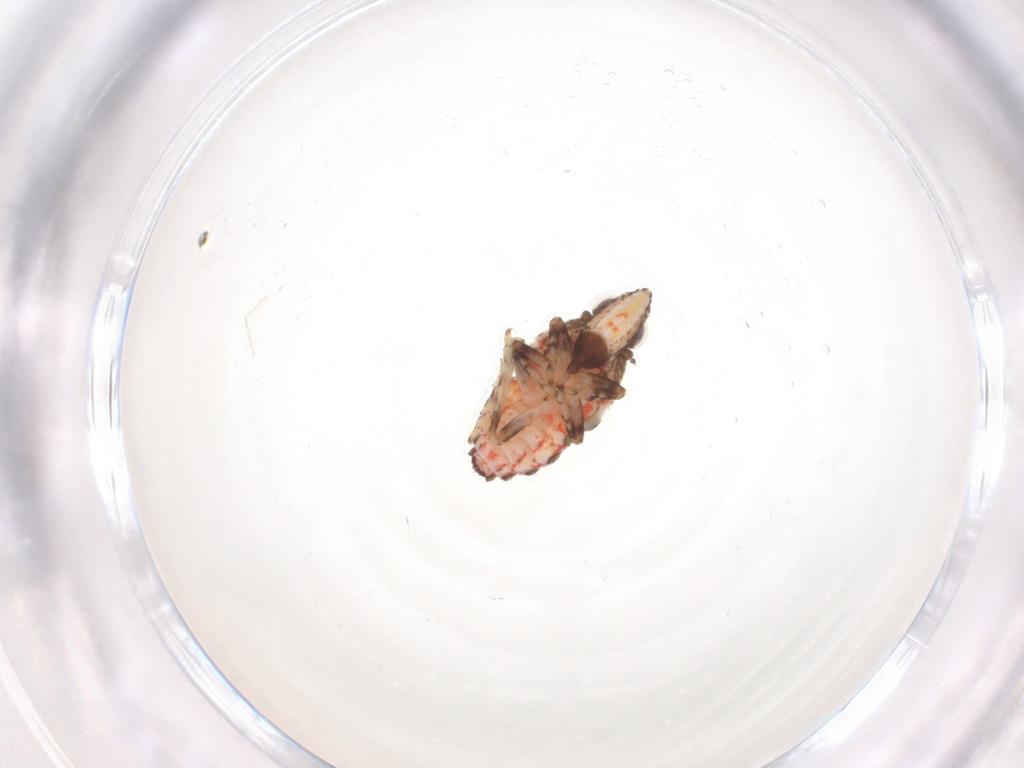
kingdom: Animalia
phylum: Arthropoda
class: Insecta
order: Hemiptera
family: Tropiduchidae
